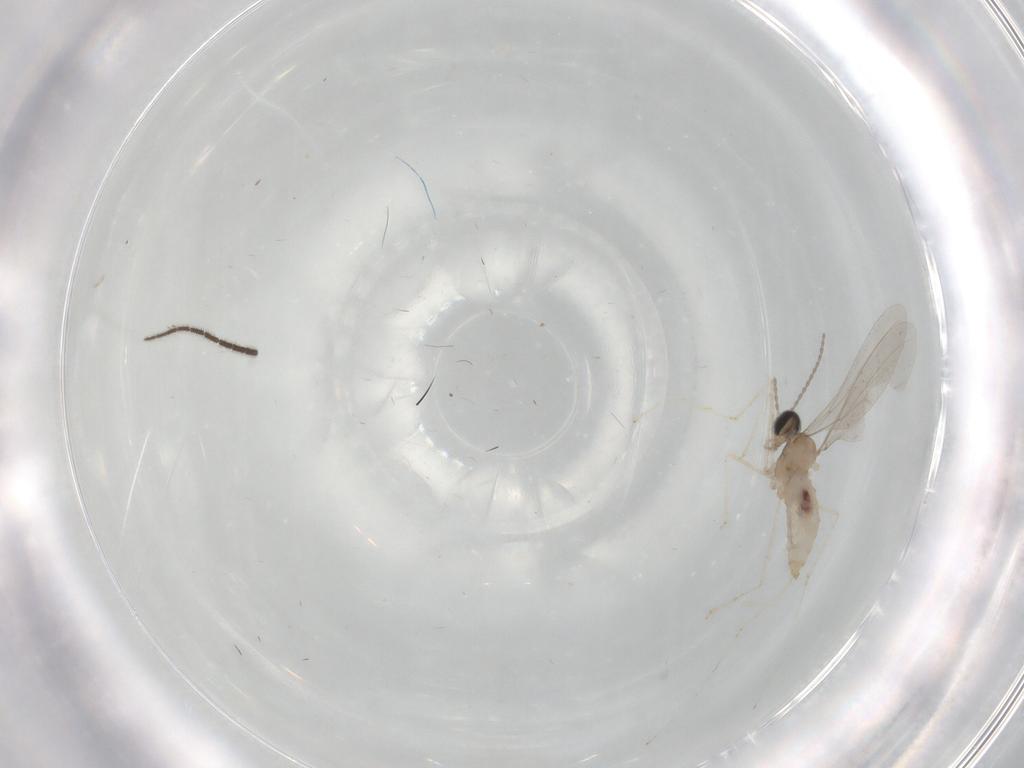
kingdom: Animalia
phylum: Arthropoda
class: Insecta
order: Diptera
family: Cecidomyiidae
